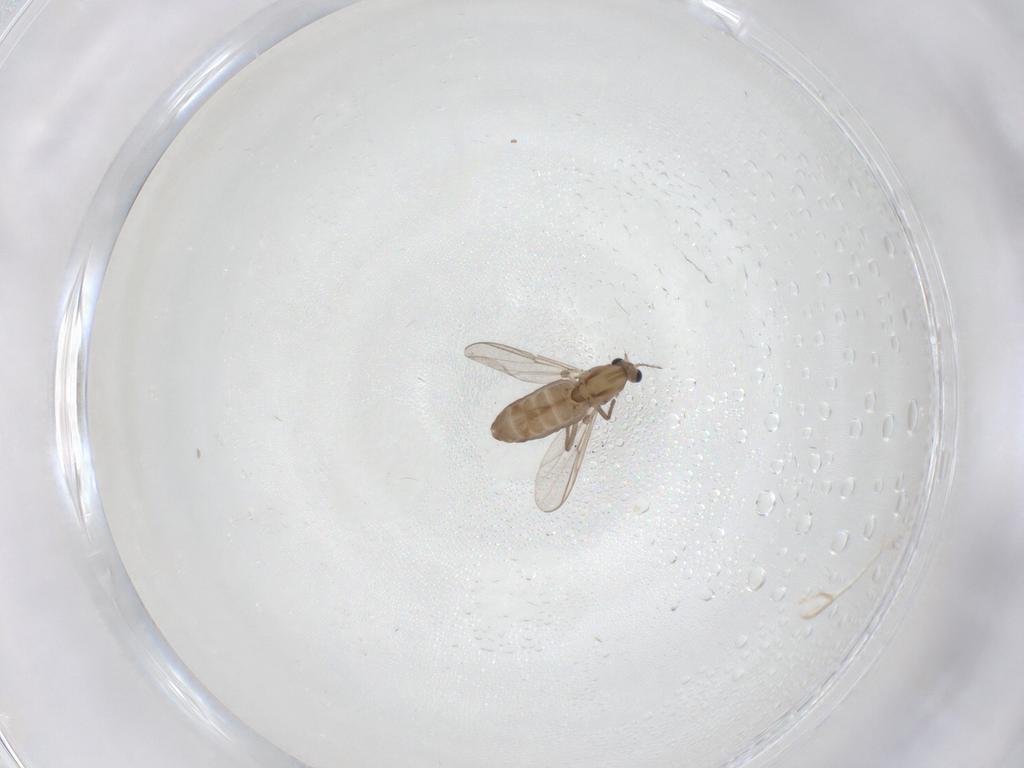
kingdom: Animalia
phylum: Arthropoda
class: Insecta
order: Diptera
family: Chironomidae
